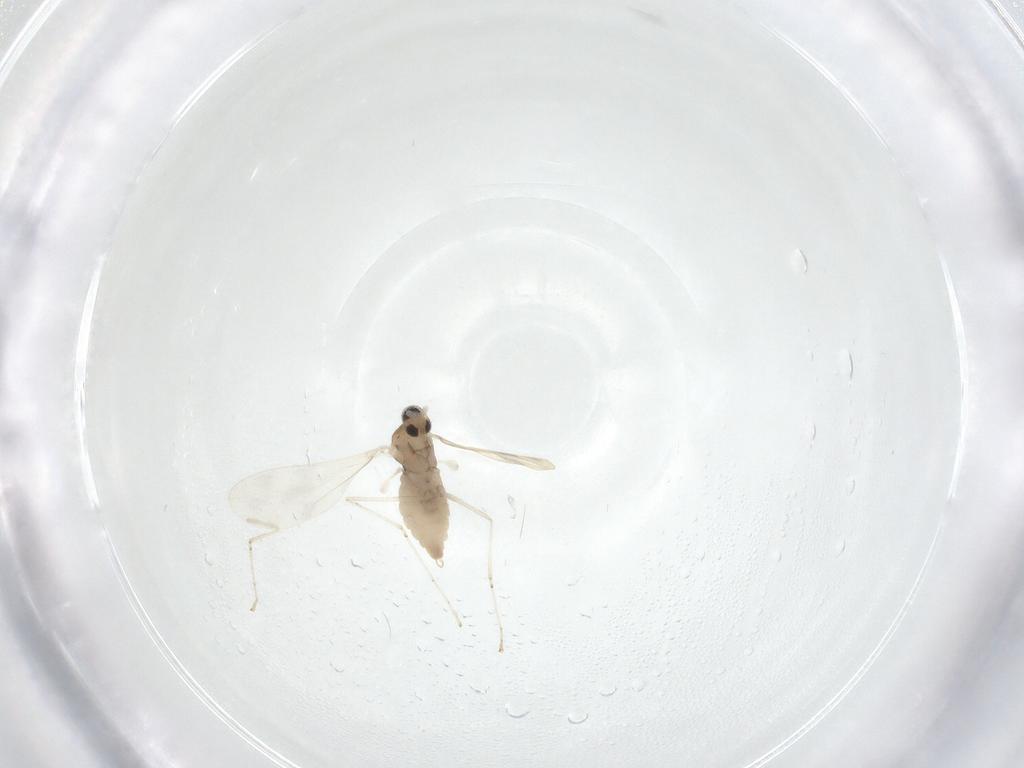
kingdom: Animalia
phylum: Arthropoda
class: Insecta
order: Diptera
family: Cecidomyiidae
